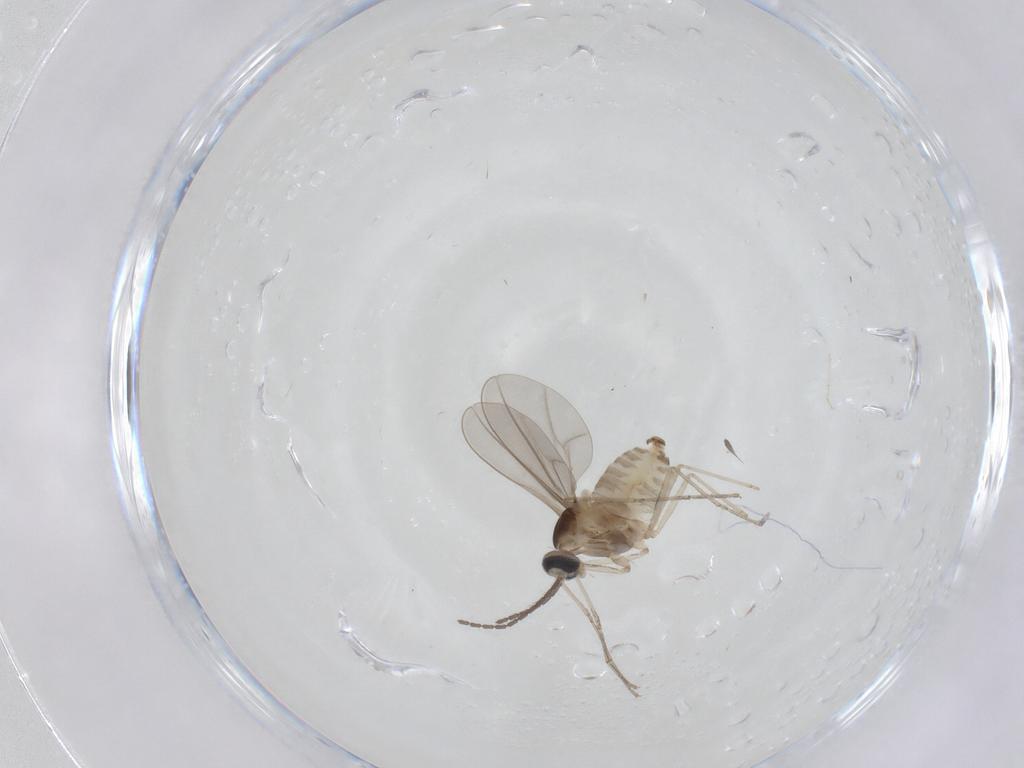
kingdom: Animalia
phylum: Arthropoda
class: Insecta
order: Diptera
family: Cecidomyiidae
